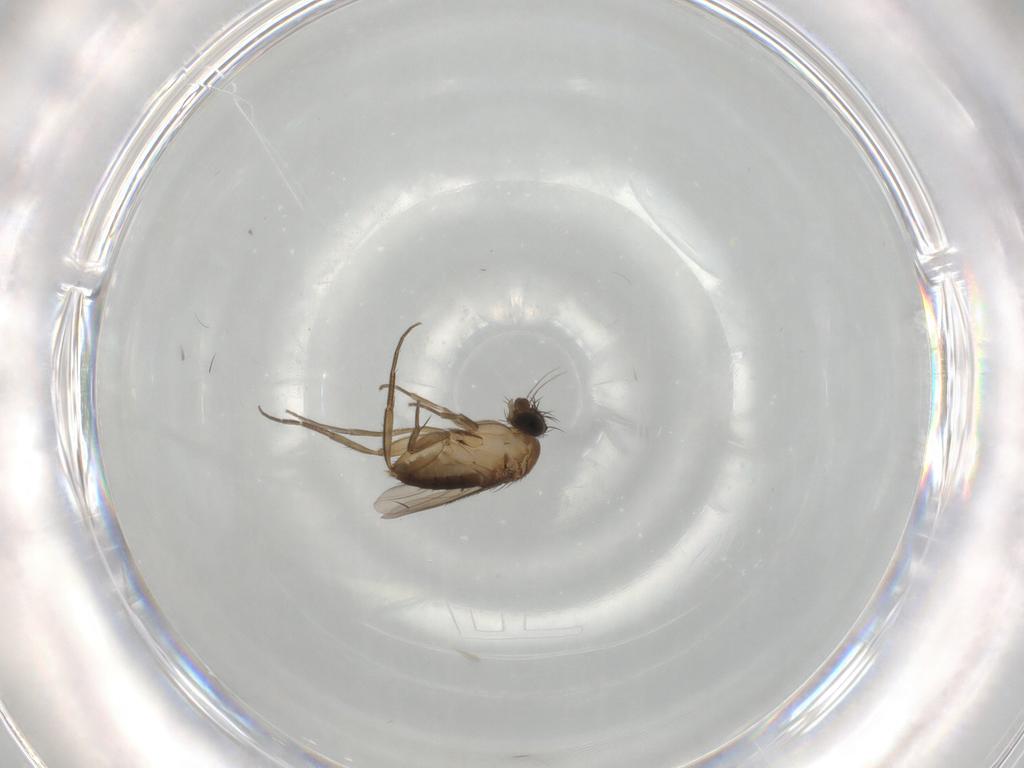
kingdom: Animalia
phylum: Arthropoda
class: Insecta
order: Diptera
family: Phoridae
